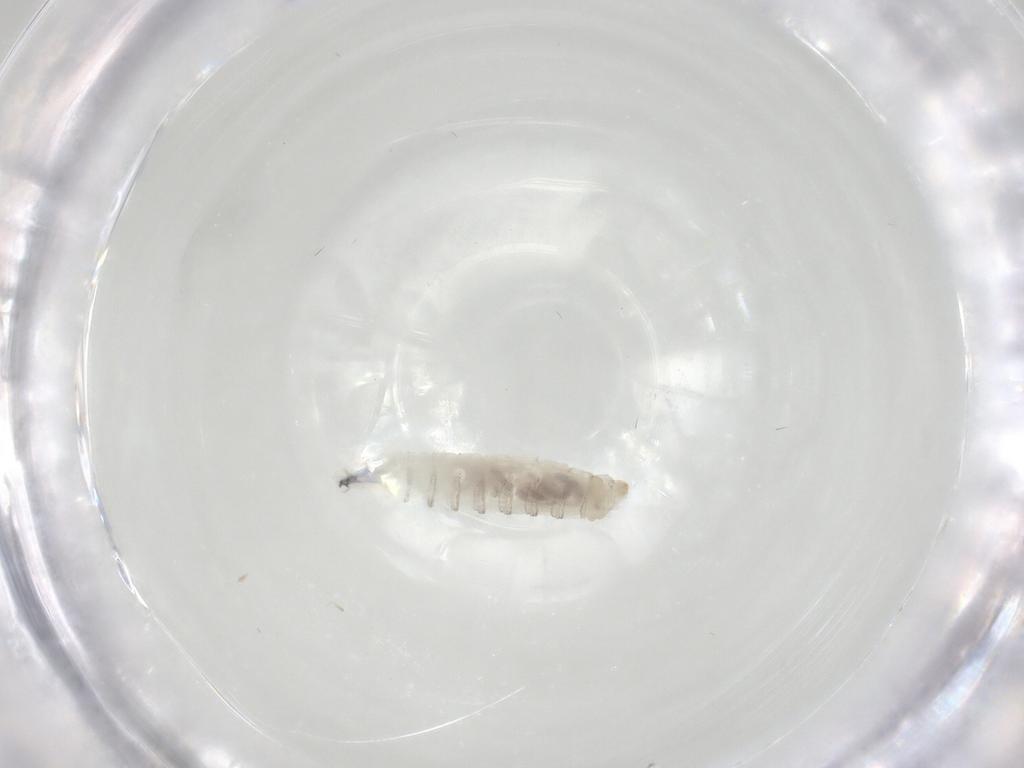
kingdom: Animalia
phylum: Arthropoda
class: Insecta
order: Diptera
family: Drosophilidae
